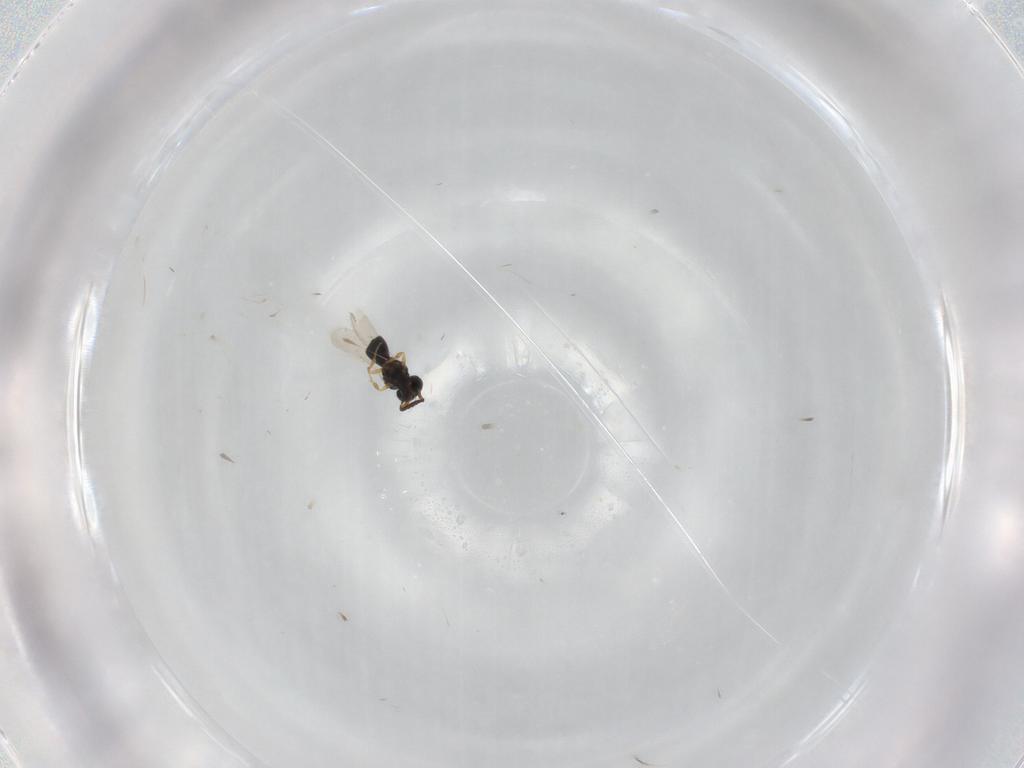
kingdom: Animalia
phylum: Arthropoda
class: Insecta
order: Hymenoptera
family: Scelionidae
